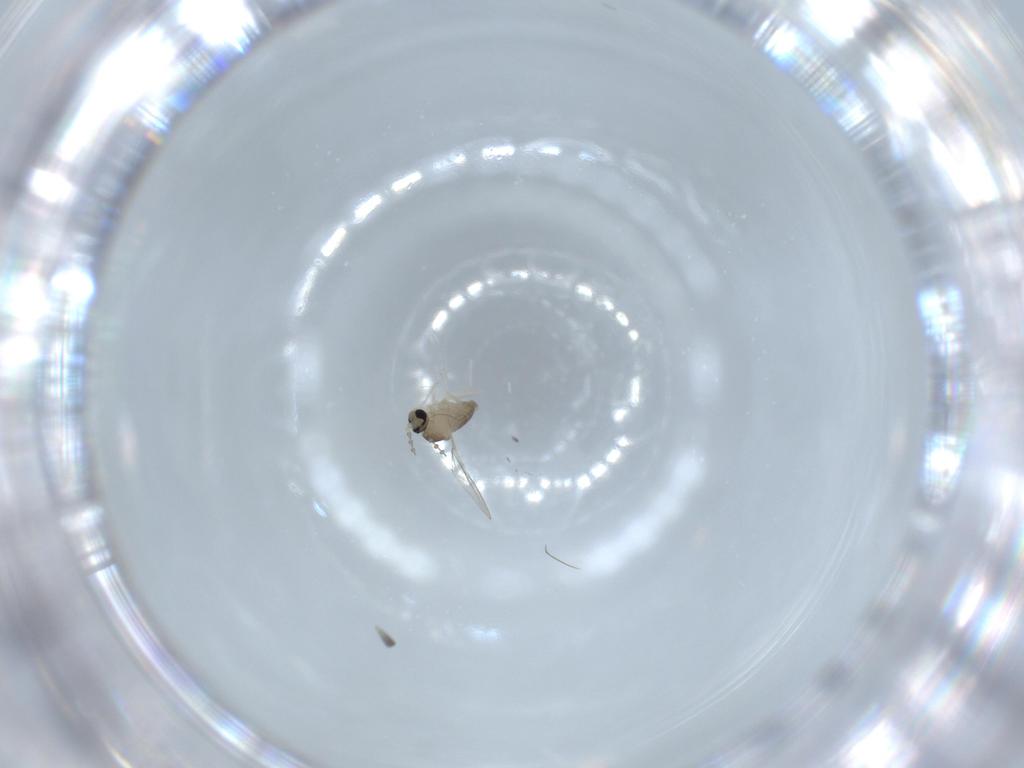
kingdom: Animalia
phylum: Arthropoda
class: Insecta
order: Diptera
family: Cecidomyiidae
